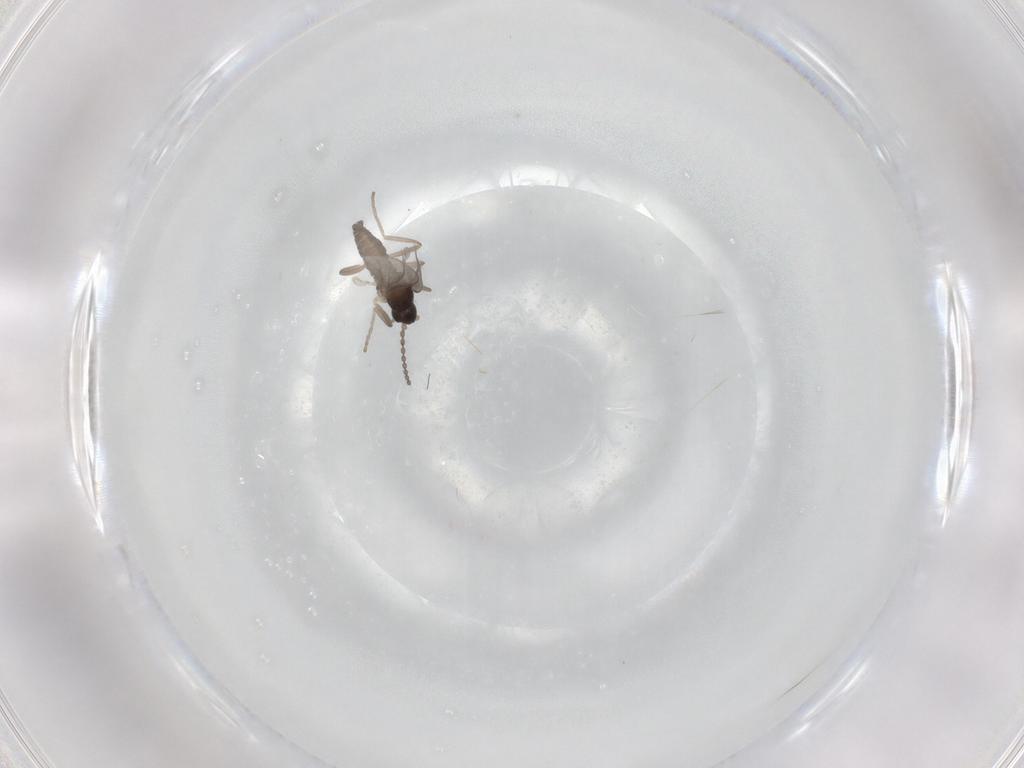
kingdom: Animalia
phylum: Arthropoda
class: Insecta
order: Diptera
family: Cecidomyiidae
